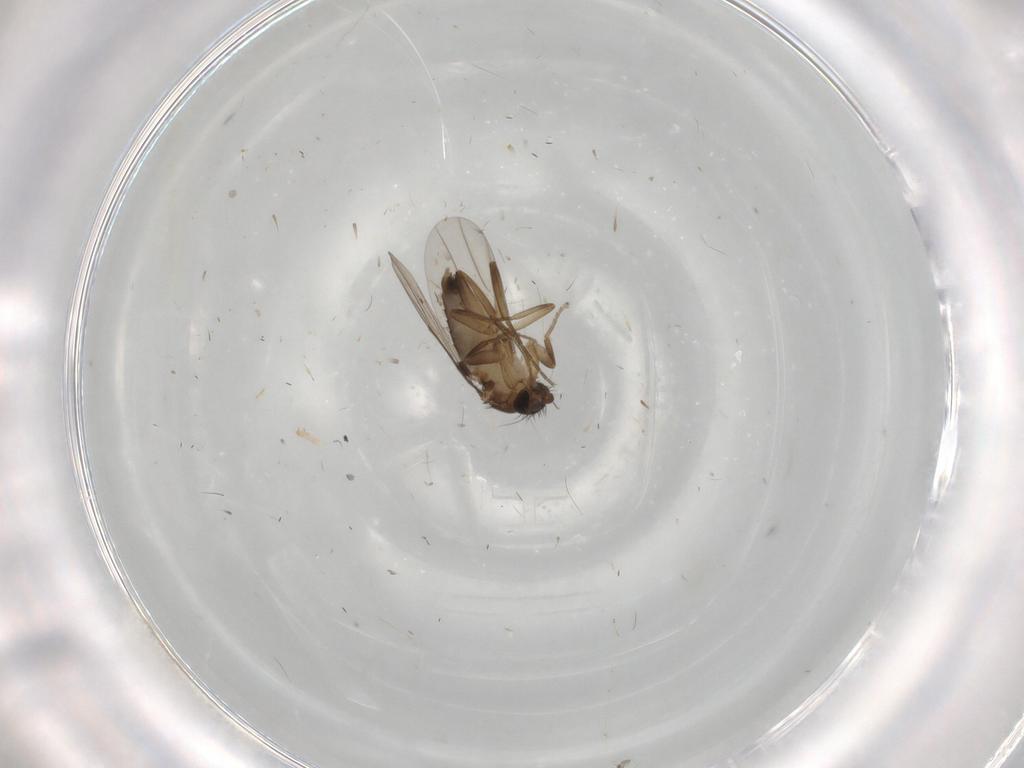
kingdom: Animalia
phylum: Arthropoda
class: Insecta
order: Diptera
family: Phoridae
